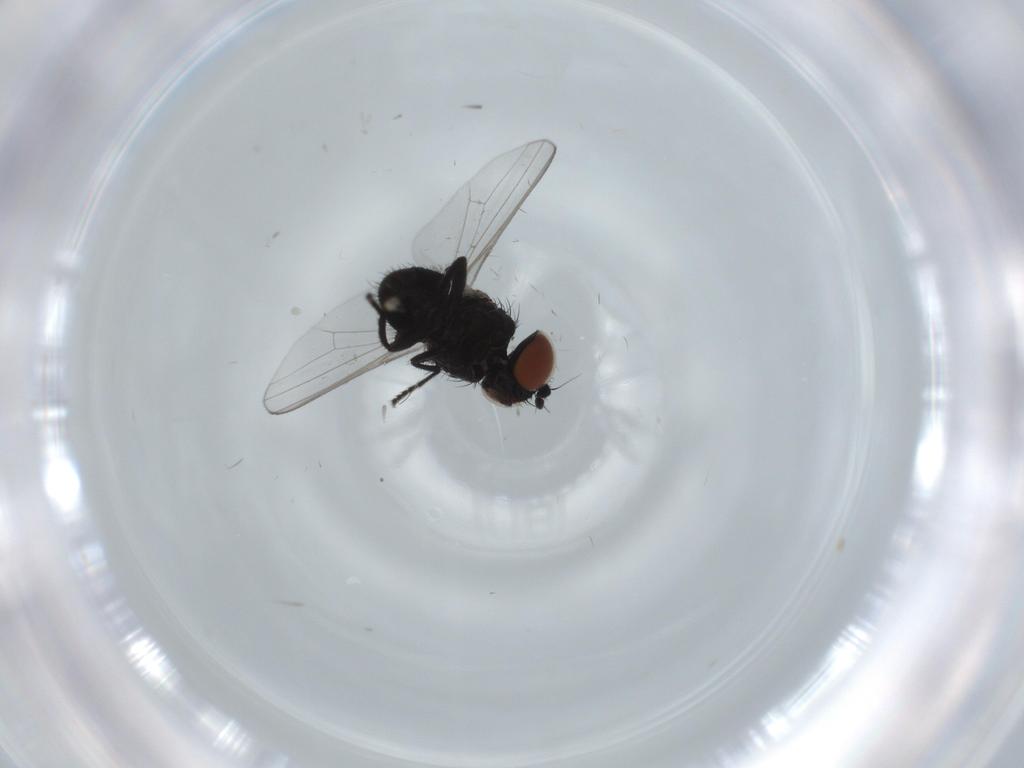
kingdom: Animalia
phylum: Arthropoda
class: Insecta
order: Diptera
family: Milichiidae
